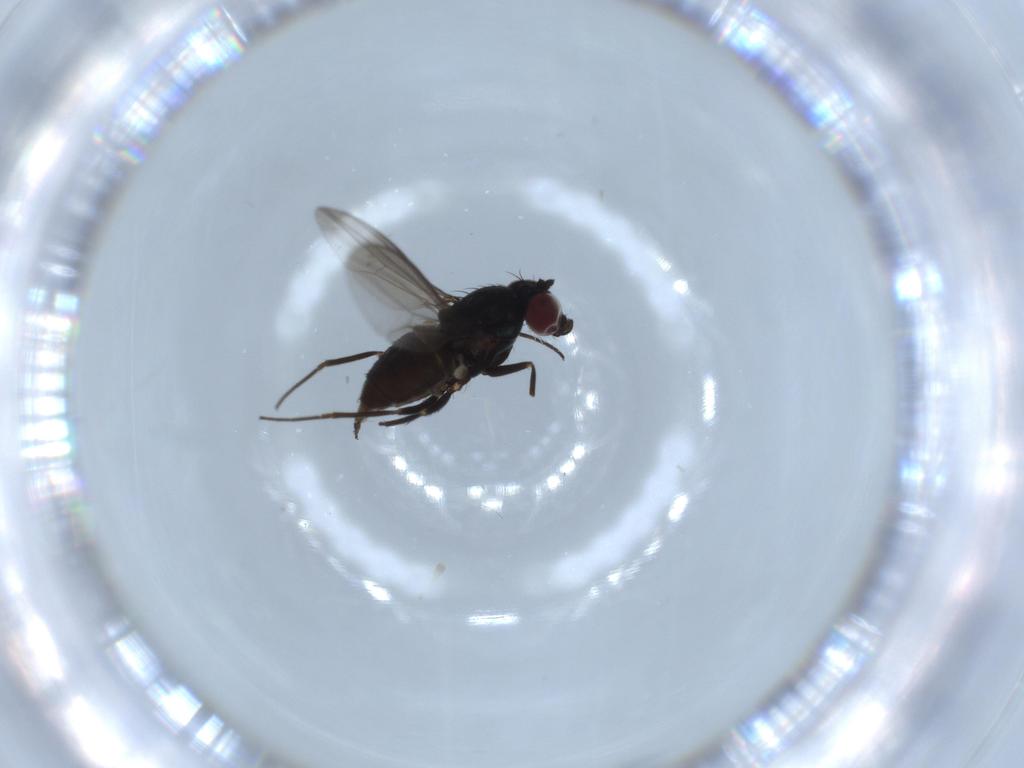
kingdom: Animalia
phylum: Arthropoda
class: Insecta
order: Diptera
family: Dolichopodidae
